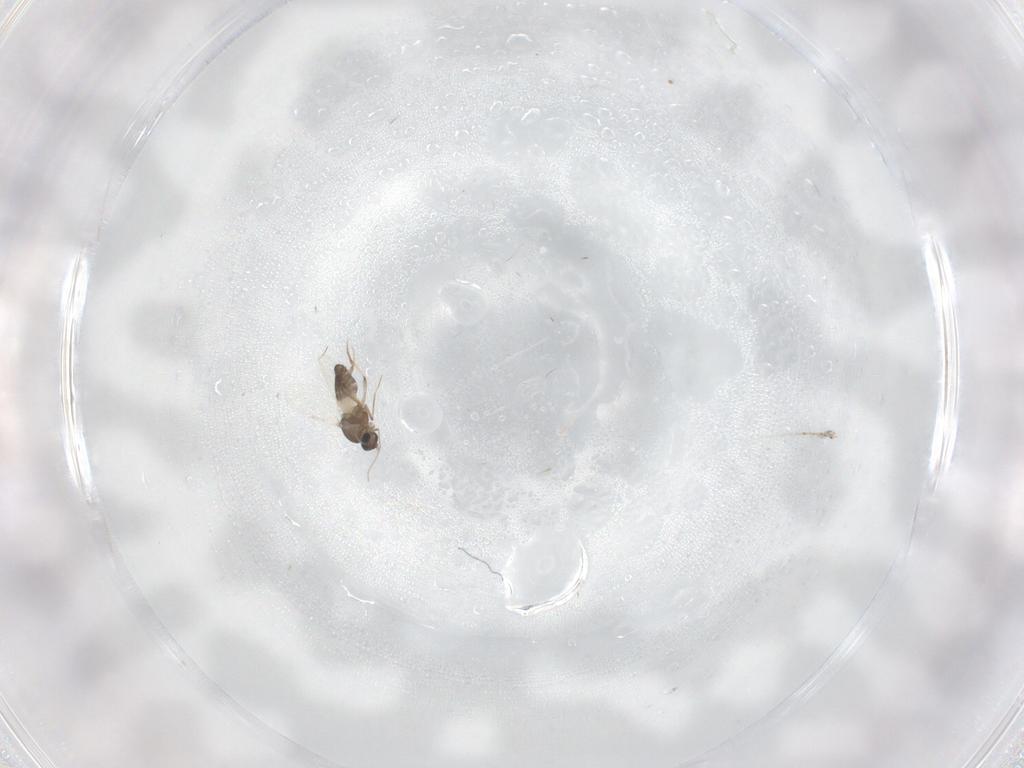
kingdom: Animalia
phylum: Arthropoda
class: Insecta
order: Diptera
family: Ceratopogonidae
